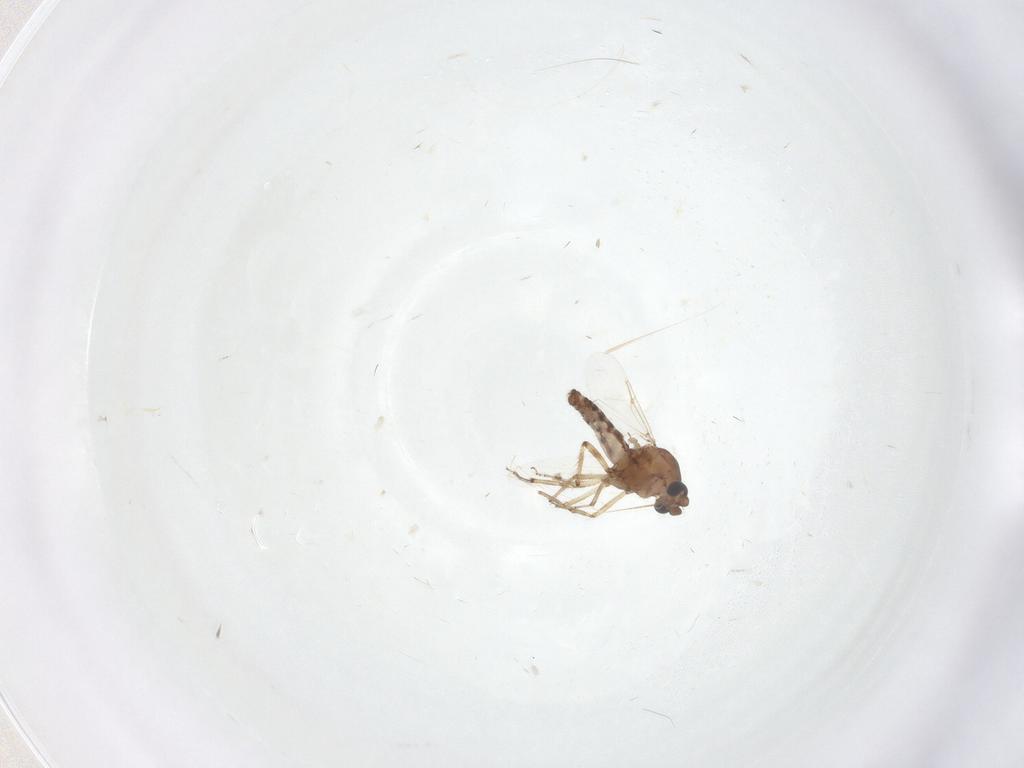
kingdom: Animalia
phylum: Arthropoda
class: Insecta
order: Diptera
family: Ceratopogonidae
